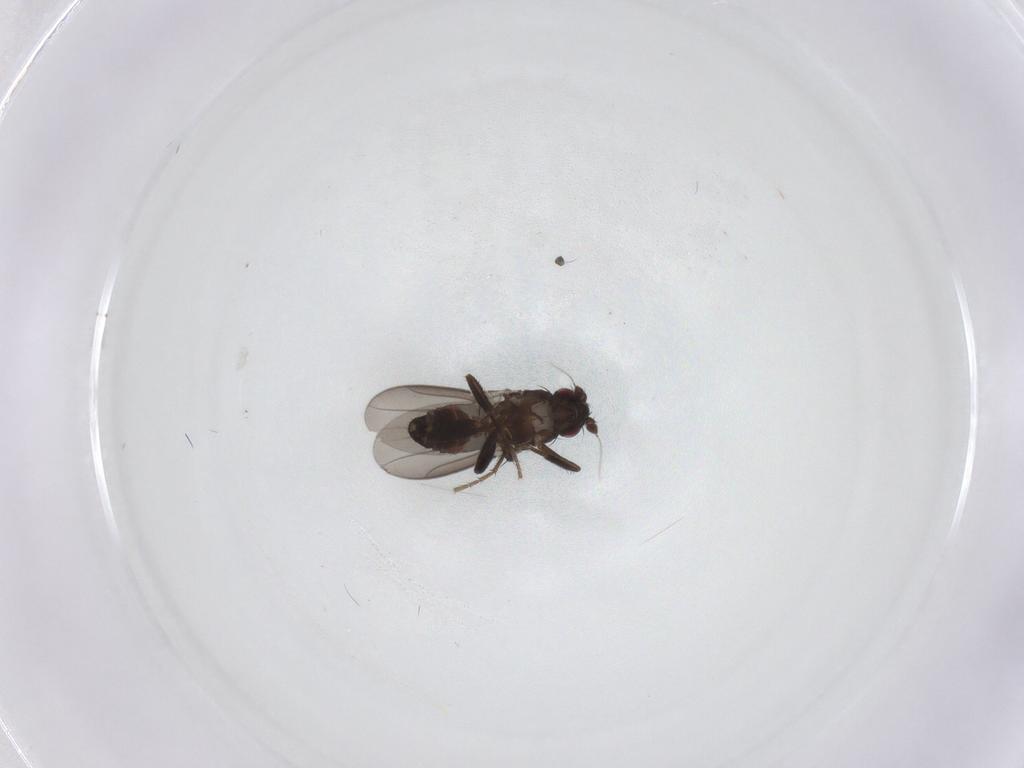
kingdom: Animalia
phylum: Arthropoda
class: Insecta
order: Diptera
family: Sphaeroceridae
